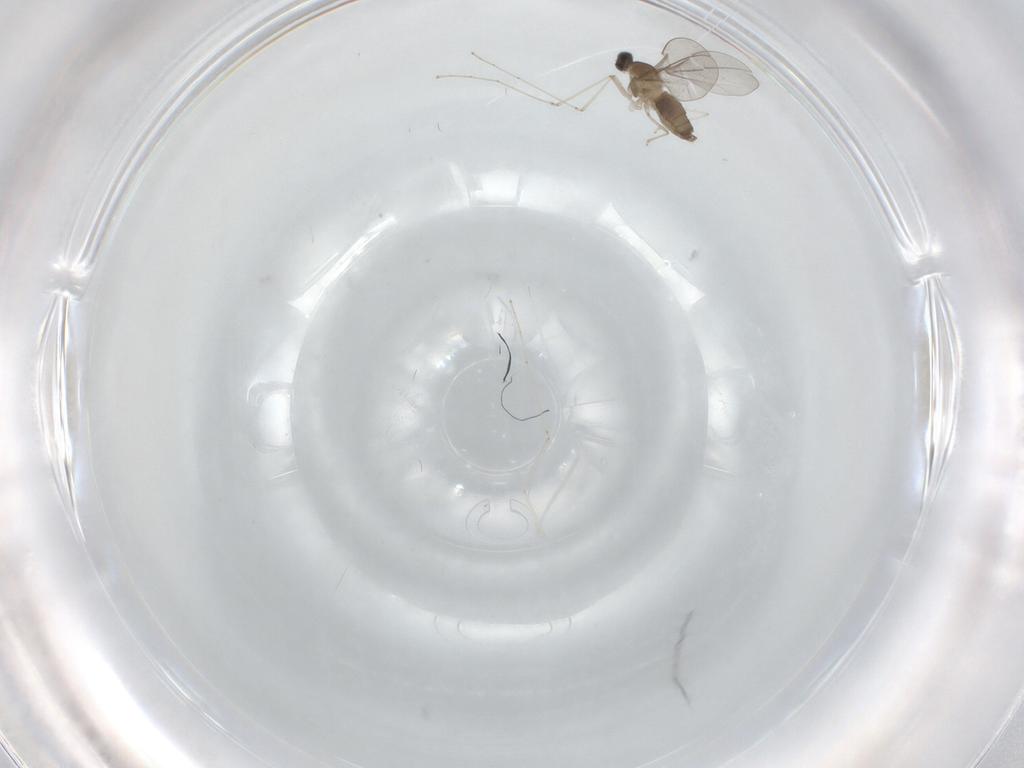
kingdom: Animalia
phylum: Arthropoda
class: Insecta
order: Diptera
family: Cecidomyiidae
